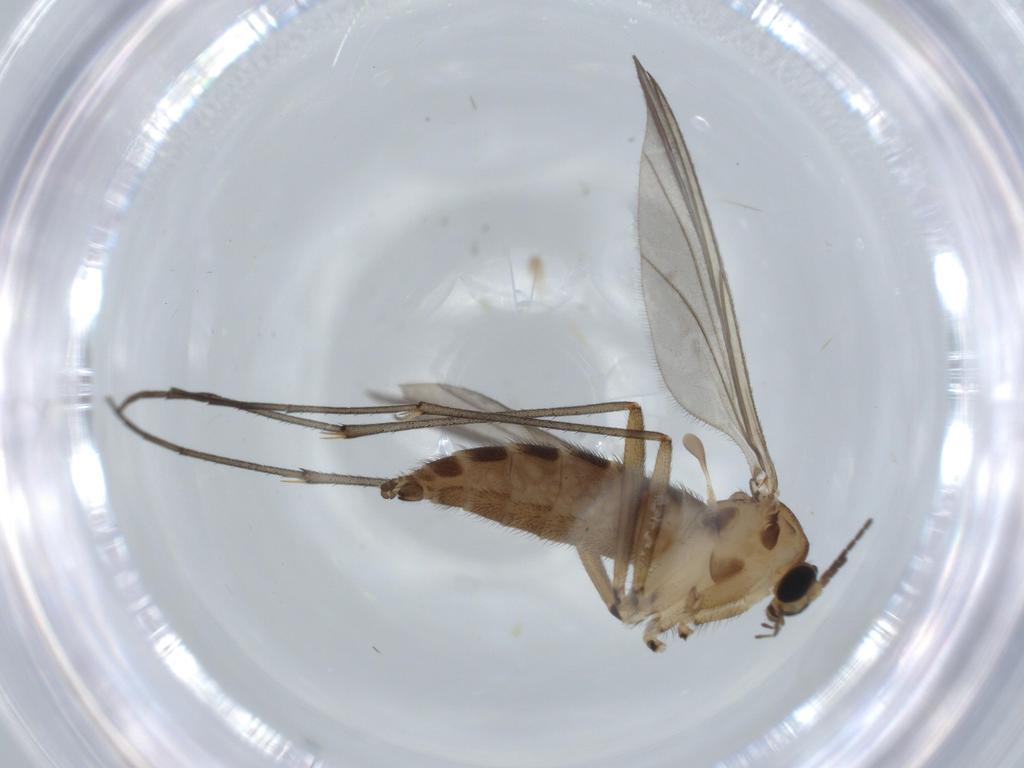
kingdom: Animalia
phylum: Arthropoda
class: Insecta
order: Diptera
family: Sciaridae
